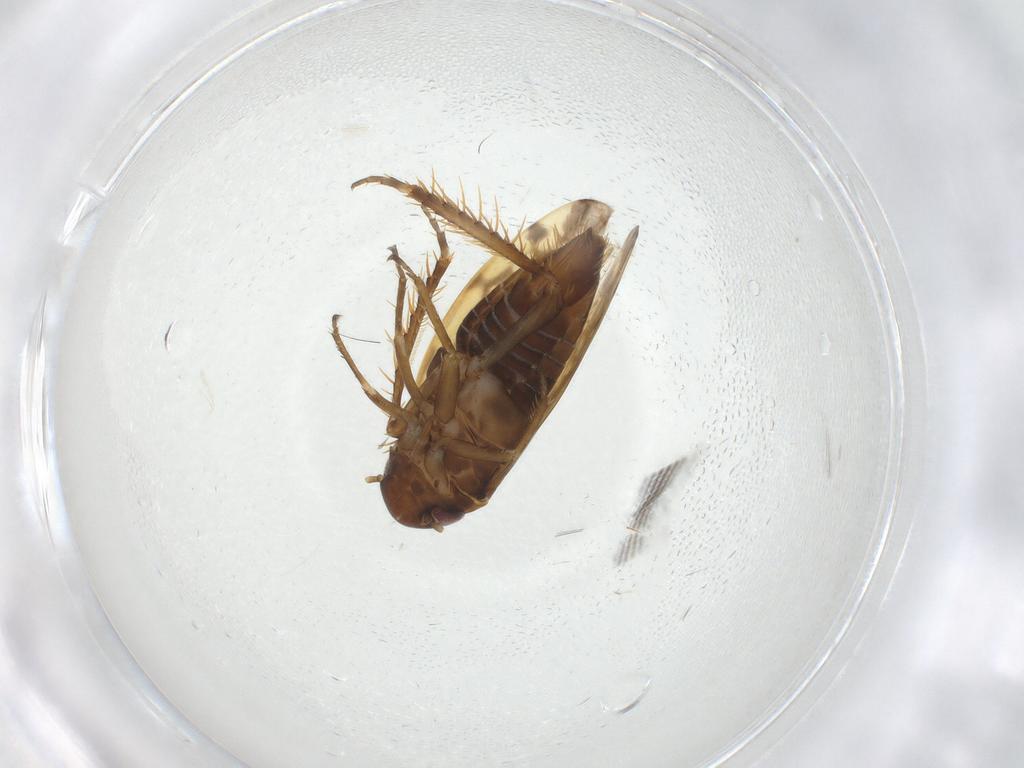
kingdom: Animalia
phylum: Arthropoda
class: Insecta
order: Hemiptera
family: Cicadellidae
